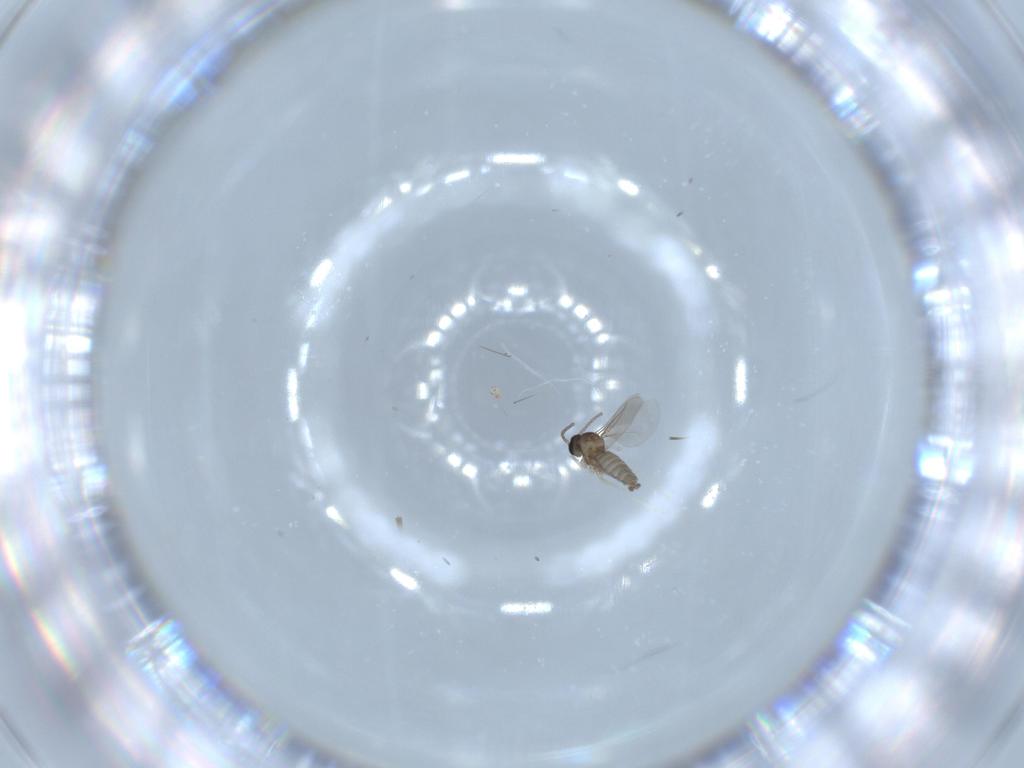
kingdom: Animalia
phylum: Arthropoda
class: Insecta
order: Diptera
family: Cecidomyiidae
